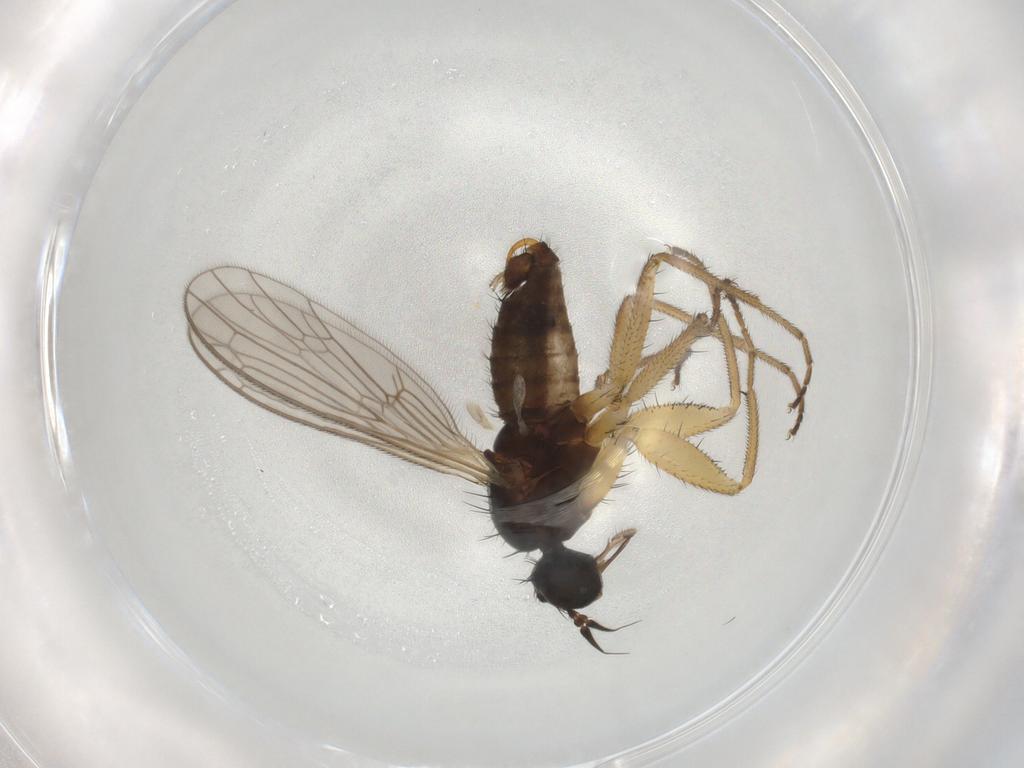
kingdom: Animalia
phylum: Arthropoda
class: Insecta
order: Diptera
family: Agromyzidae
